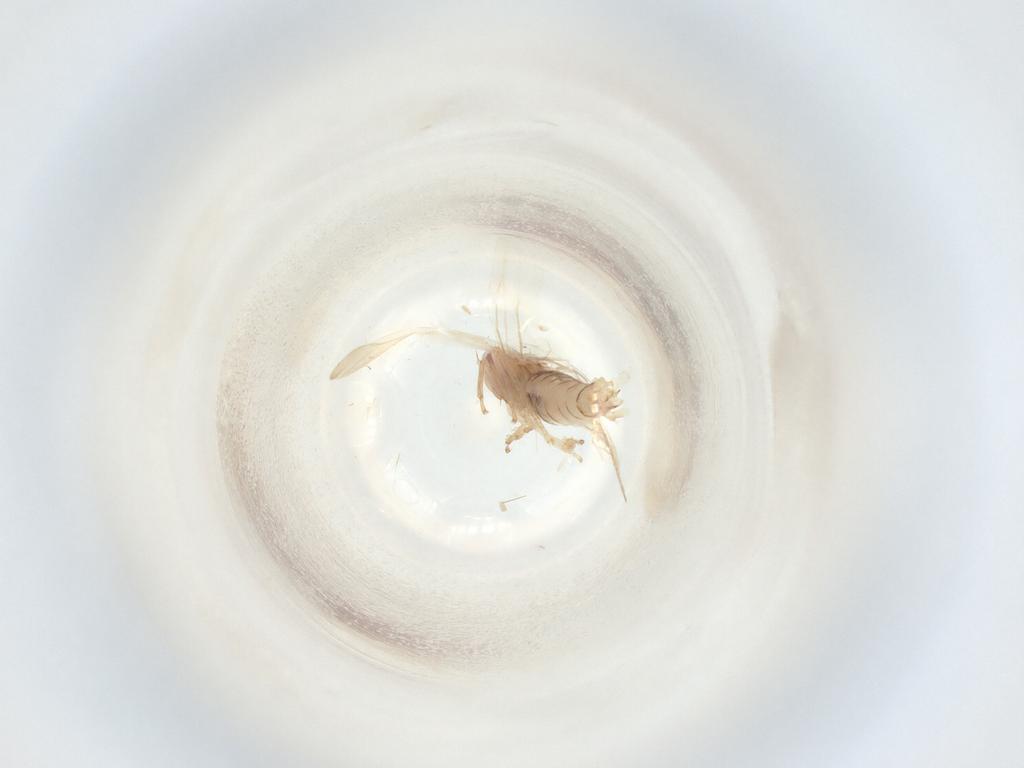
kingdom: Animalia
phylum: Arthropoda
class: Insecta
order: Hemiptera
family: Cicadellidae
